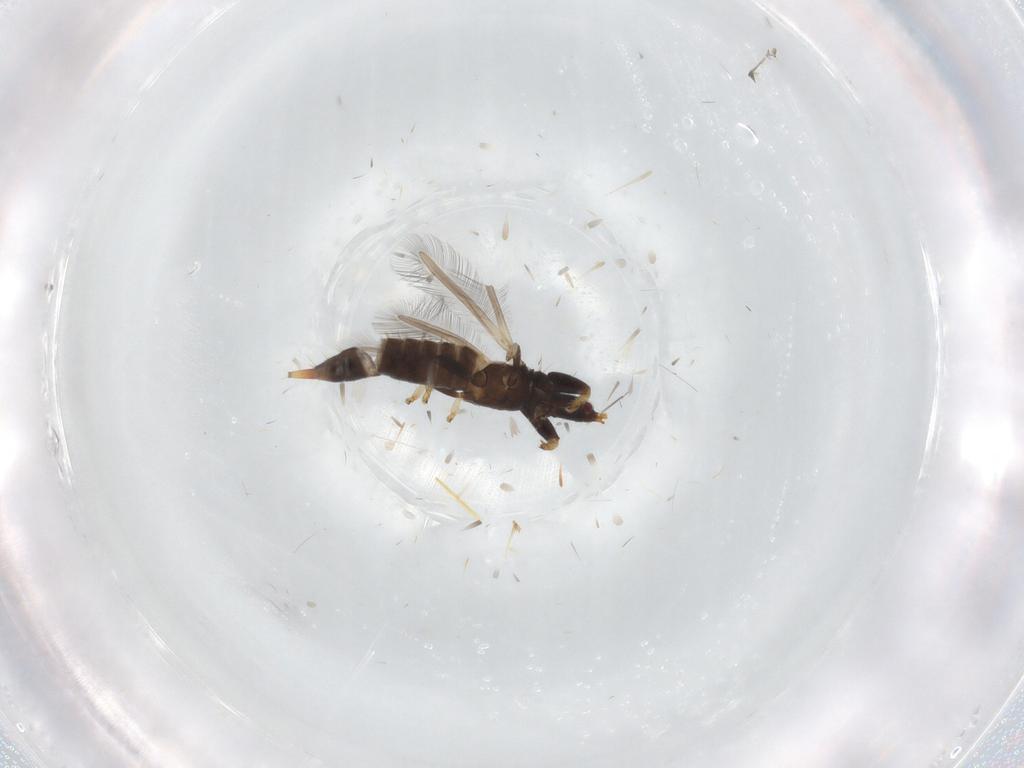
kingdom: Animalia
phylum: Arthropoda
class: Insecta
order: Thysanoptera
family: Phlaeothripidae
